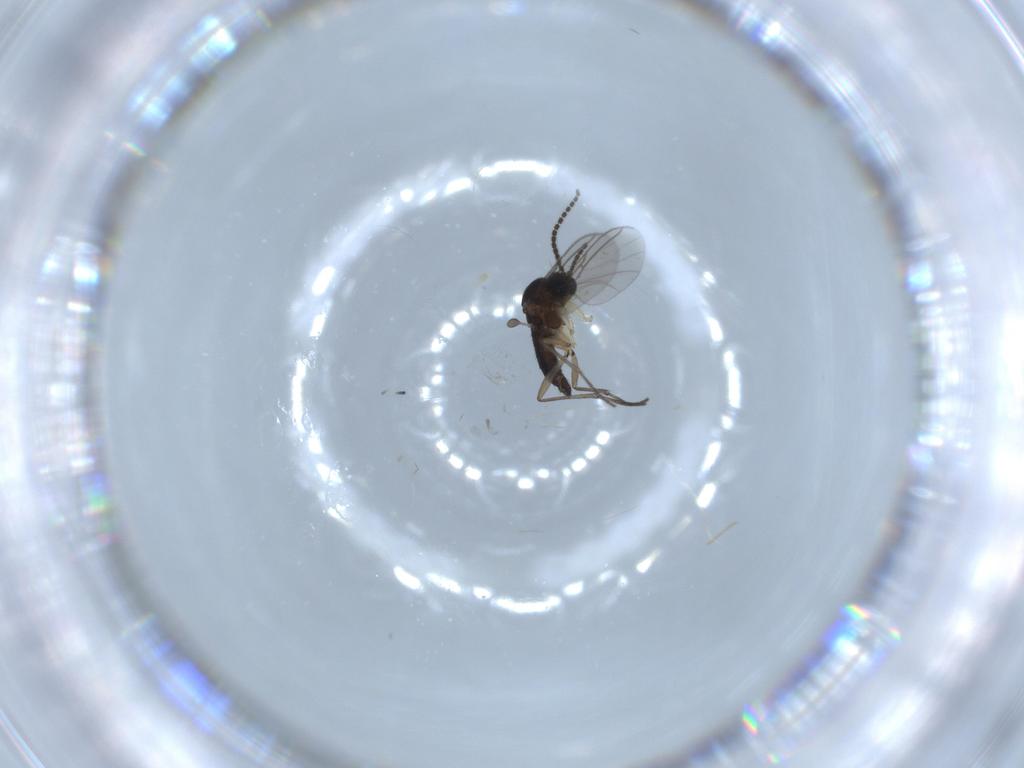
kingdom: Animalia
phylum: Arthropoda
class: Insecta
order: Diptera
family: Sciaridae
